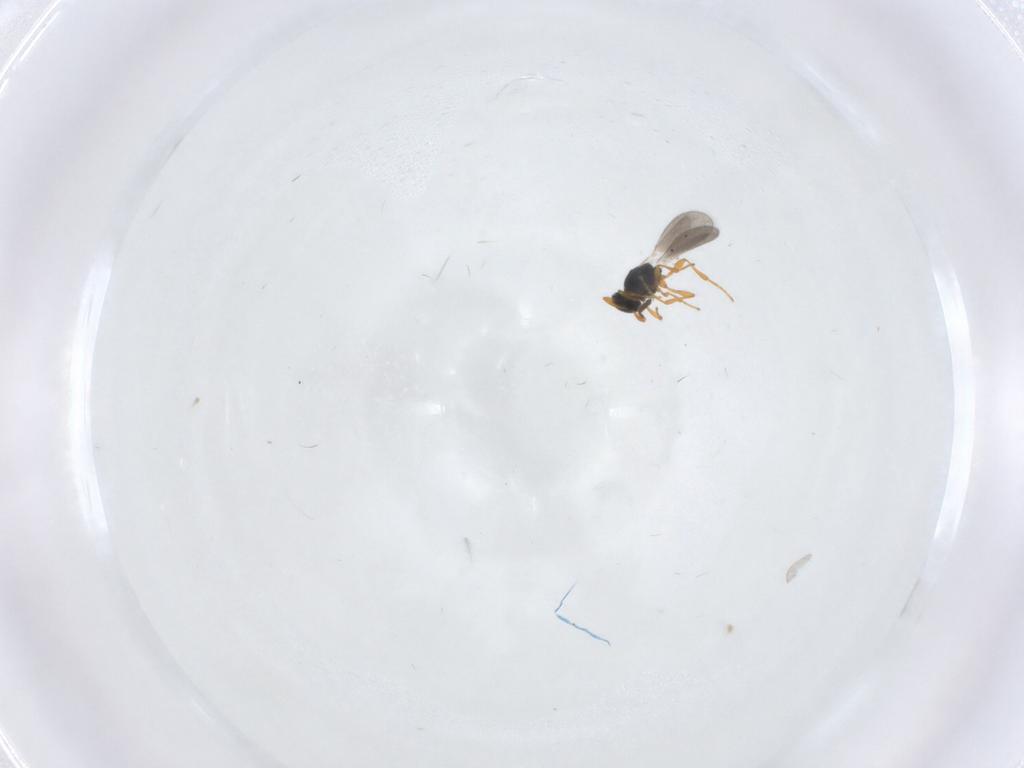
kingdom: Animalia
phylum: Arthropoda
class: Insecta
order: Hymenoptera
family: Platygastridae
